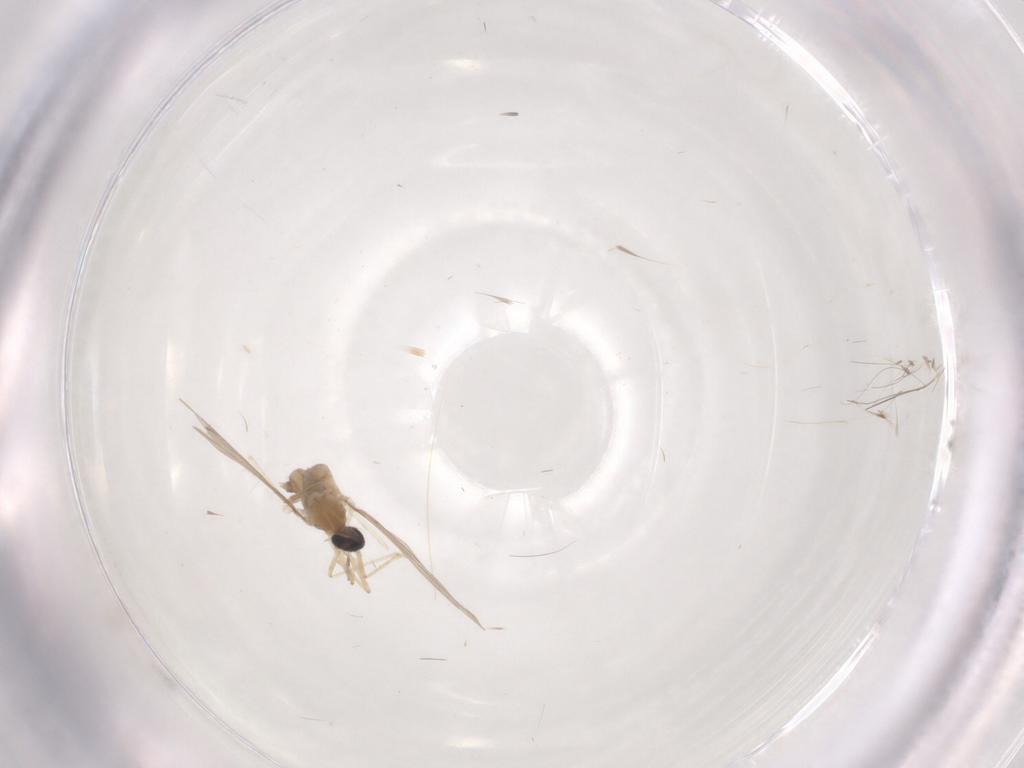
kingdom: Animalia
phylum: Arthropoda
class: Insecta
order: Diptera
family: Cecidomyiidae
